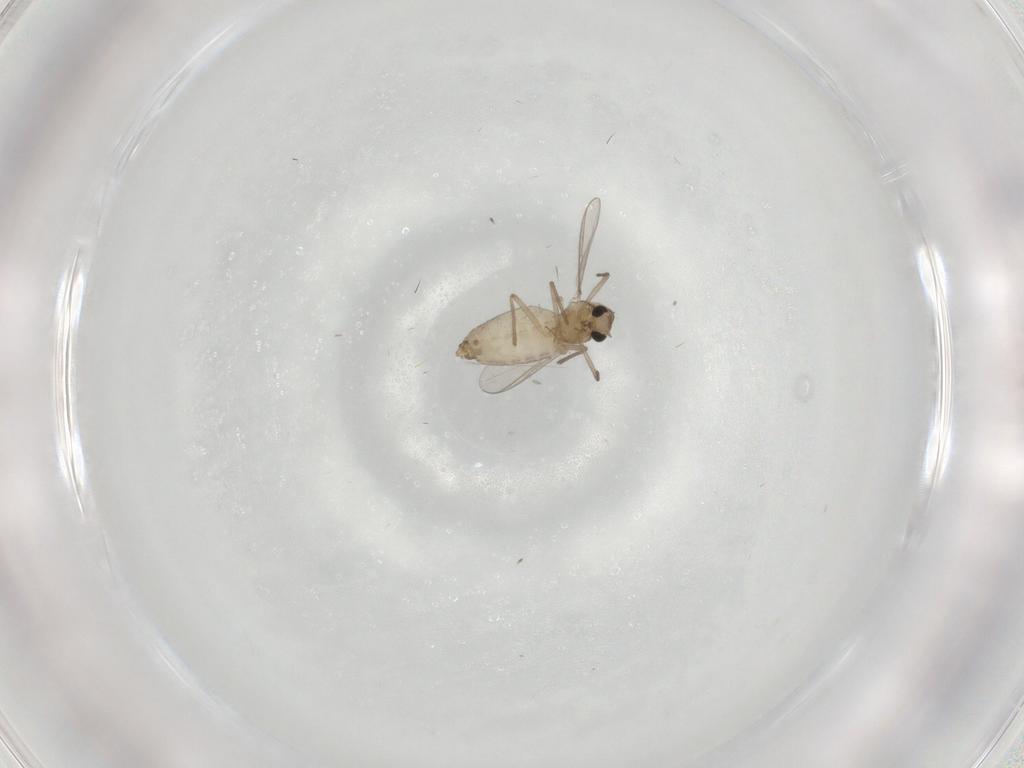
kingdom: Animalia
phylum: Arthropoda
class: Insecta
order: Diptera
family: Chironomidae
